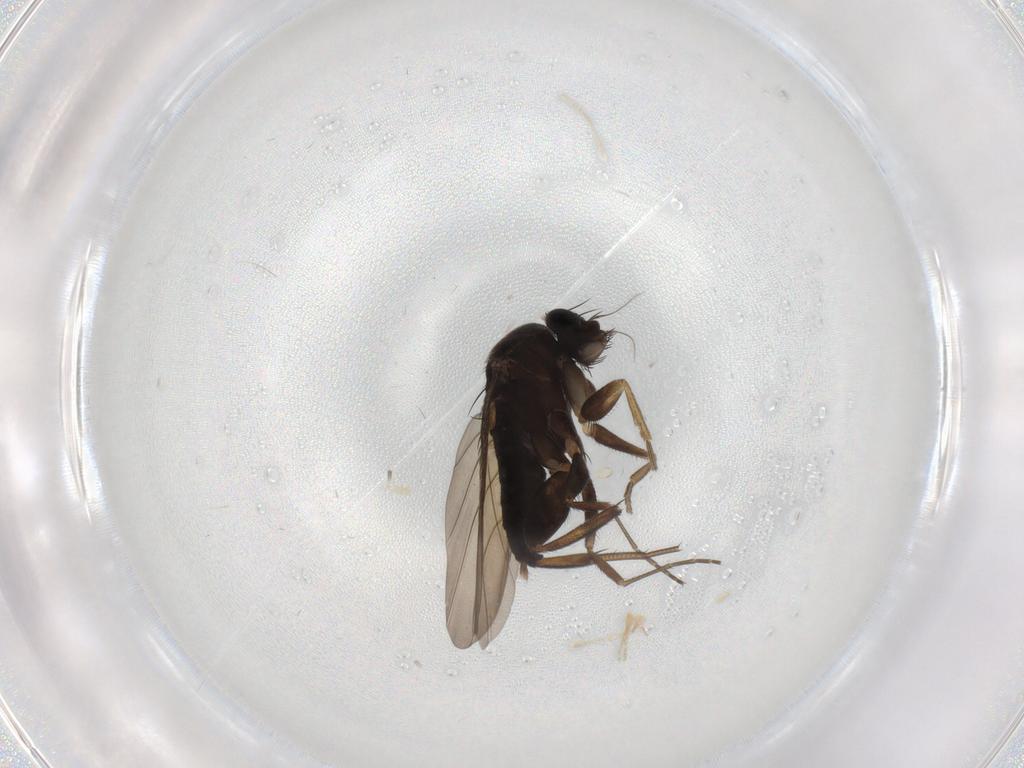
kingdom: Animalia
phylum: Arthropoda
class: Insecta
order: Diptera
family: Phoridae
